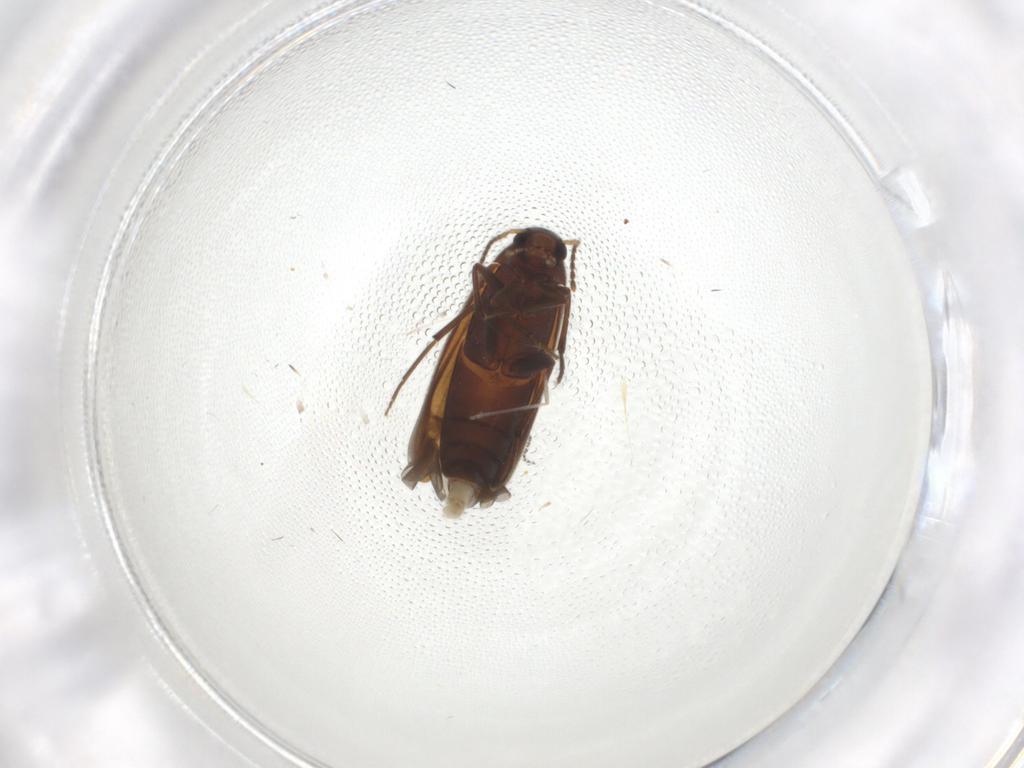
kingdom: Animalia
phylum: Arthropoda
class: Insecta
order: Coleoptera
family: Melandryidae
